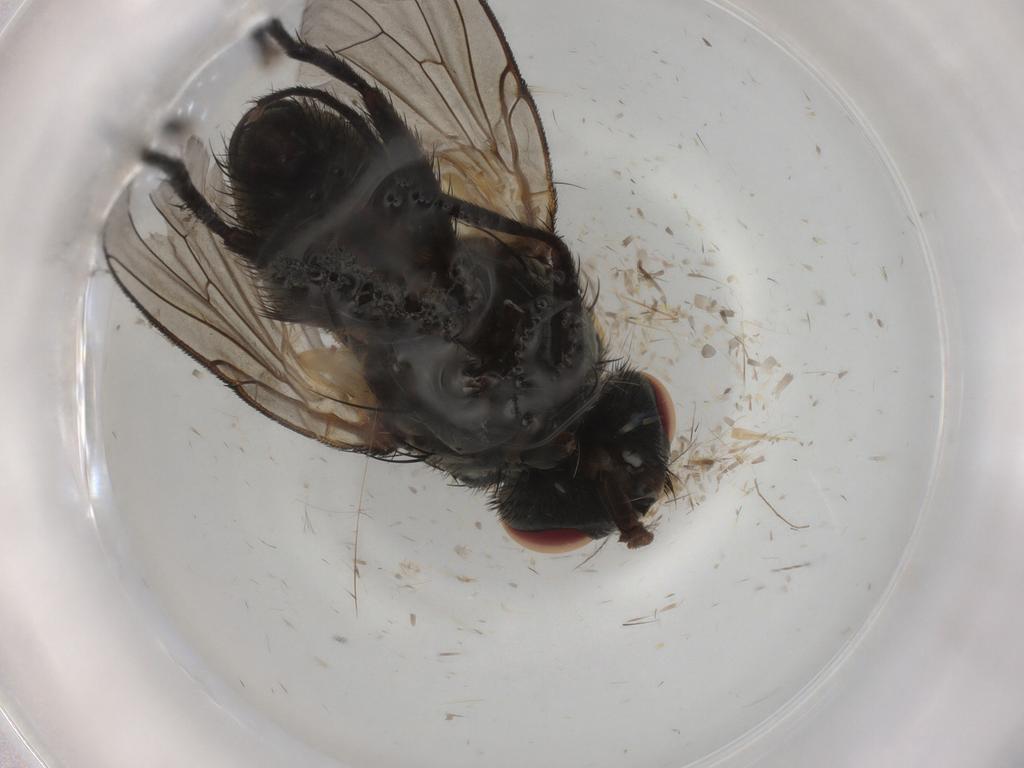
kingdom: Animalia
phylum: Arthropoda
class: Insecta
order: Diptera
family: Muscidae
